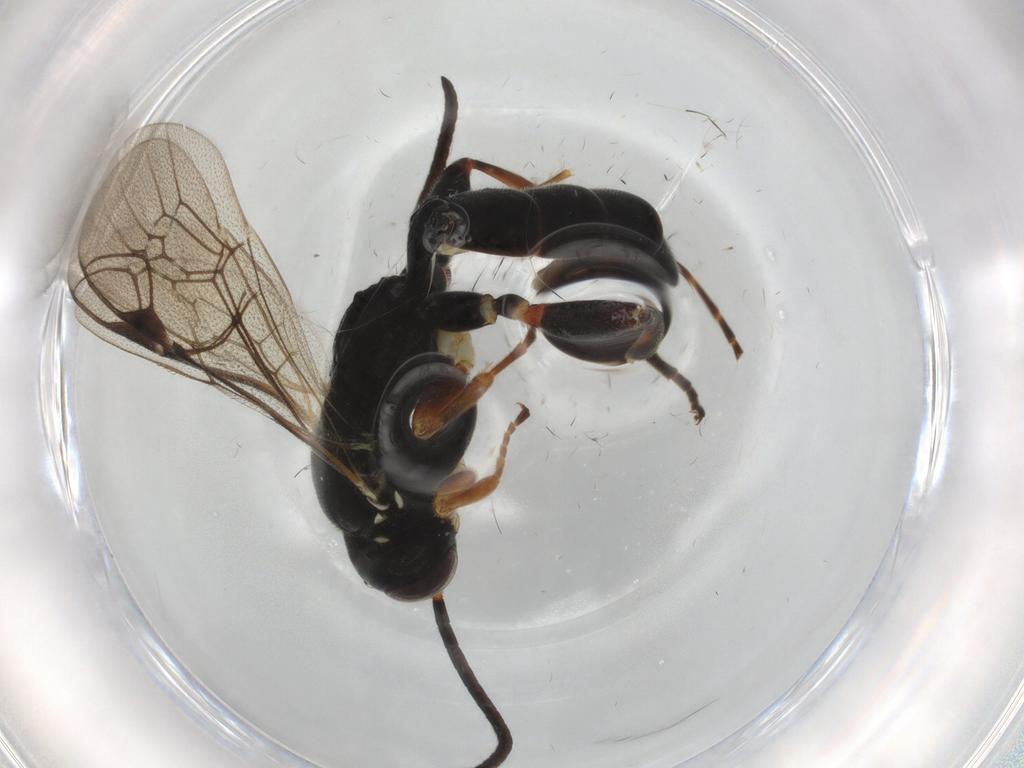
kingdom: Animalia
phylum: Arthropoda
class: Insecta
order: Hymenoptera
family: Ichneumonidae
